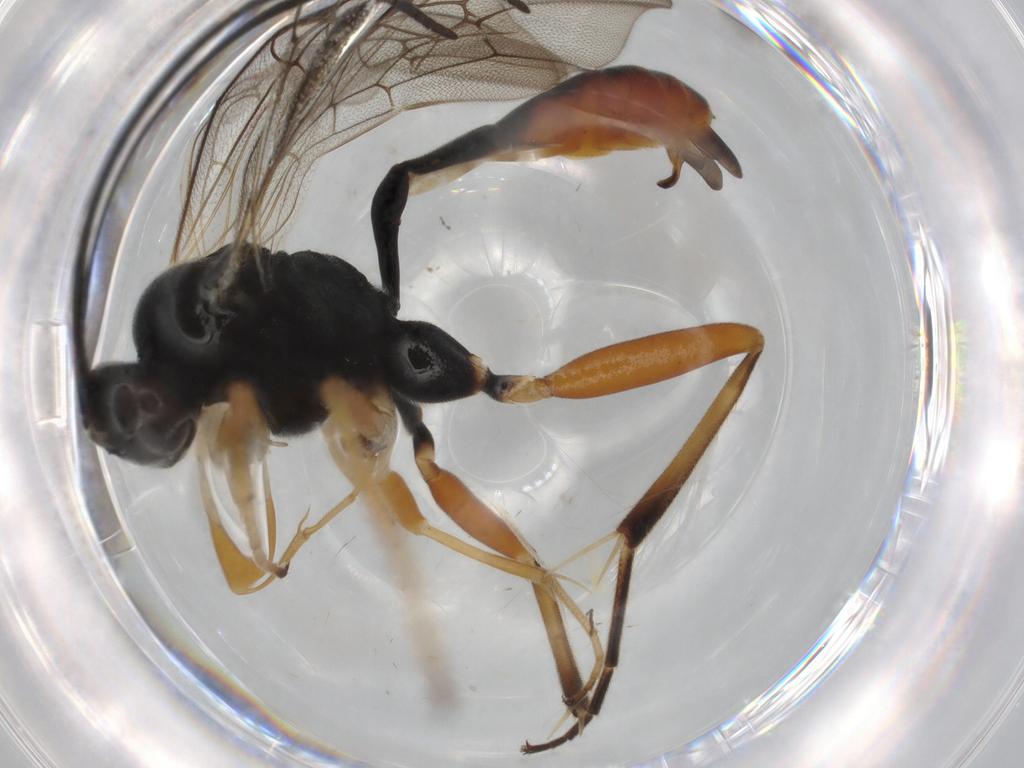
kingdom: Animalia
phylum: Arthropoda
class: Insecta
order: Hymenoptera
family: Ichneumonidae
